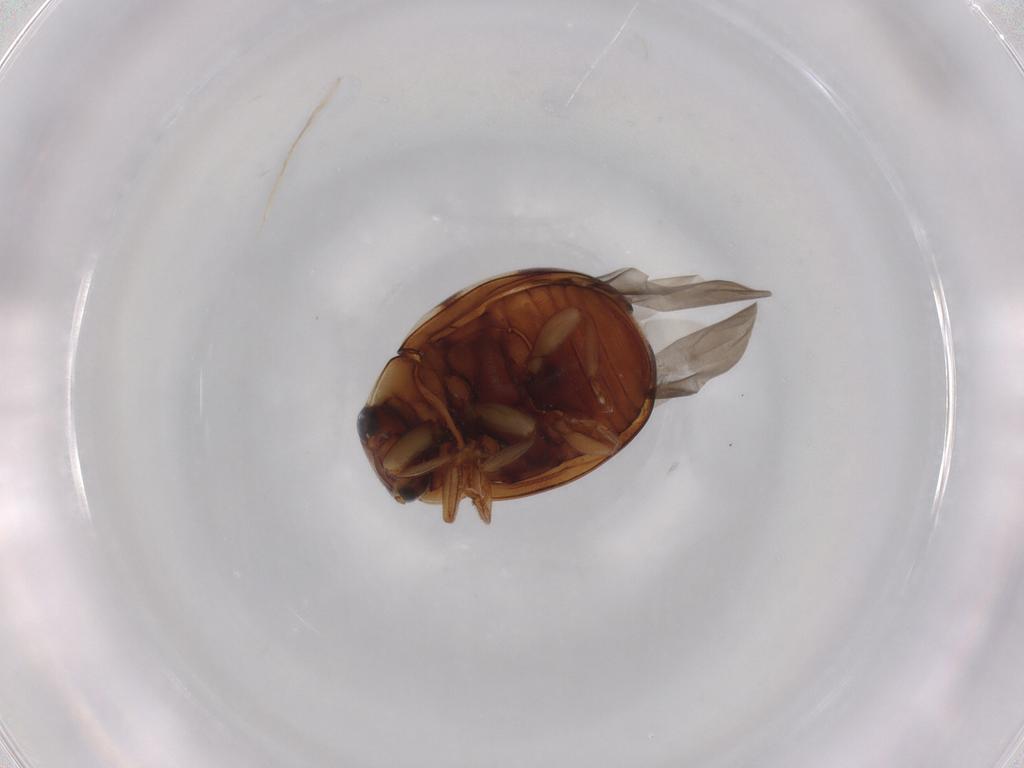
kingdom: Animalia
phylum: Arthropoda
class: Insecta
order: Coleoptera
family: Coccinellidae
